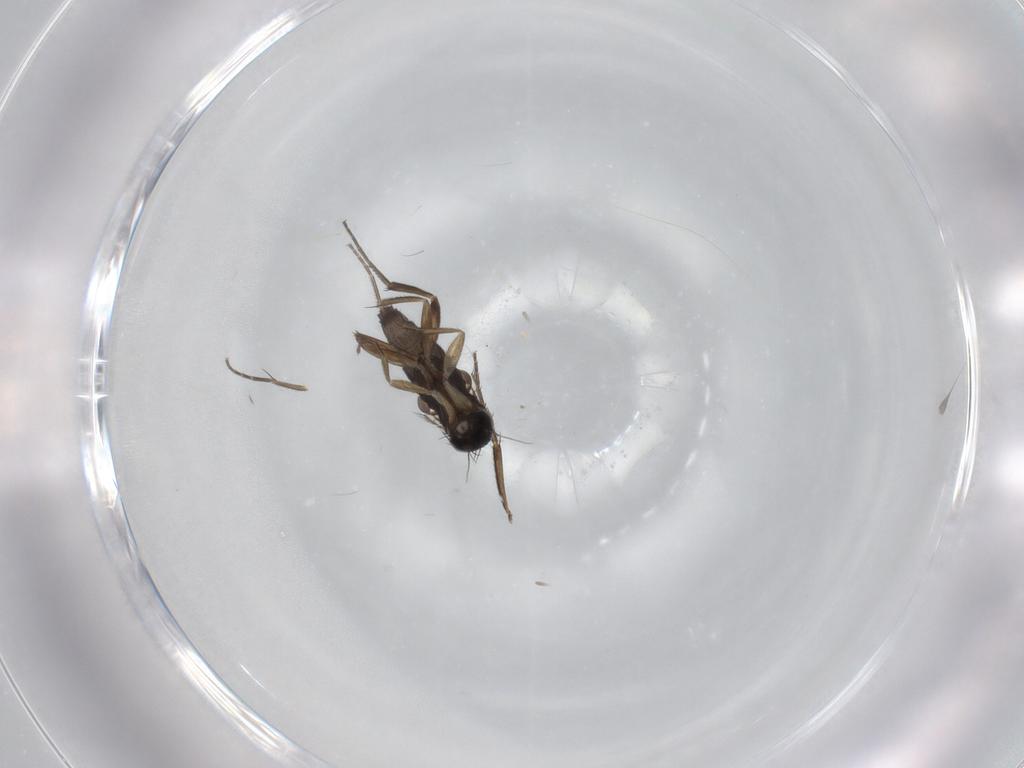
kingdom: Animalia
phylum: Arthropoda
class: Insecta
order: Diptera
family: Phoridae
